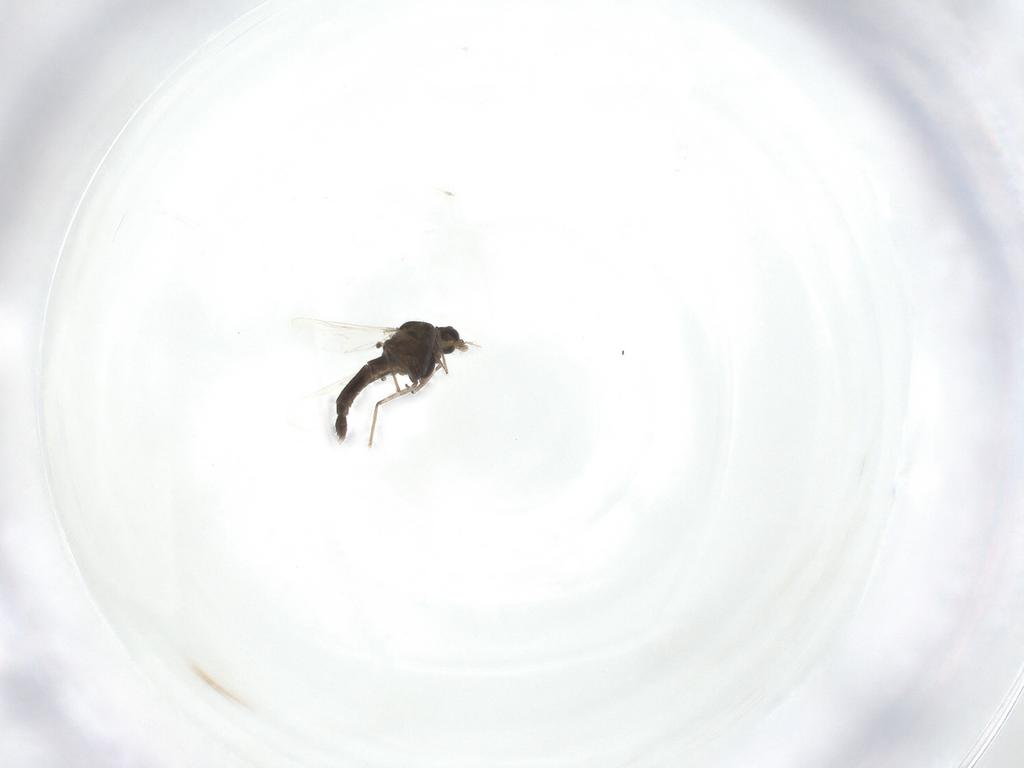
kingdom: Animalia
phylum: Arthropoda
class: Insecta
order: Diptera
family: Chironomidae
